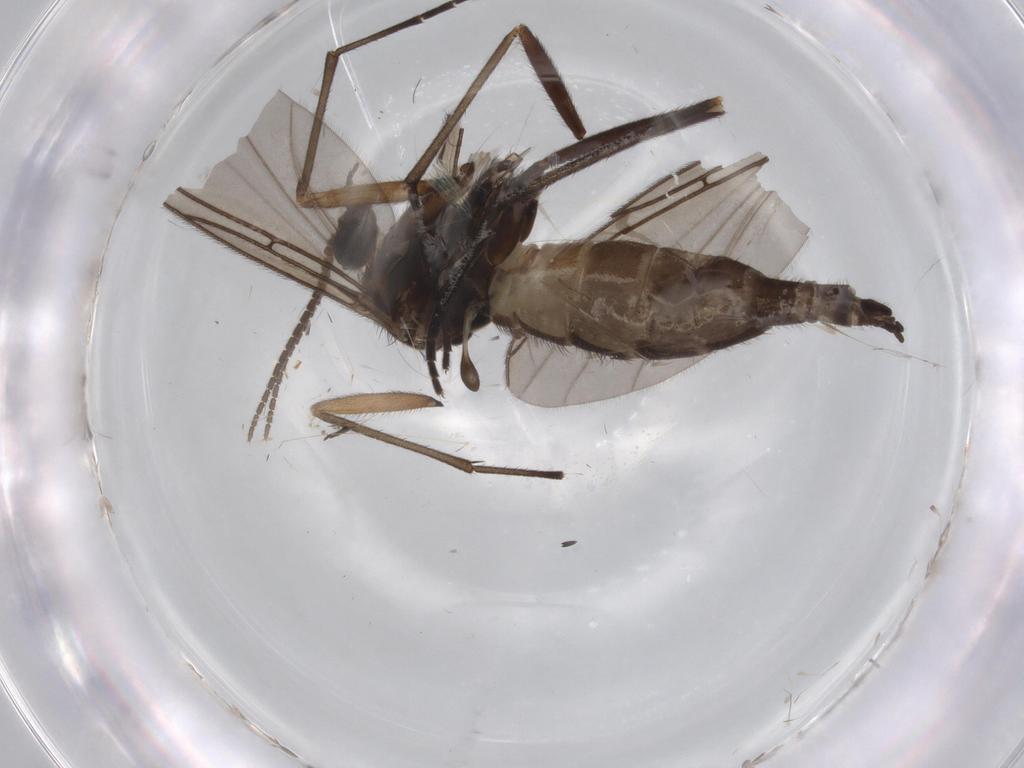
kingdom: Animalia
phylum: Arthropoda
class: Insecta
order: Diptera
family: Sciaridae
